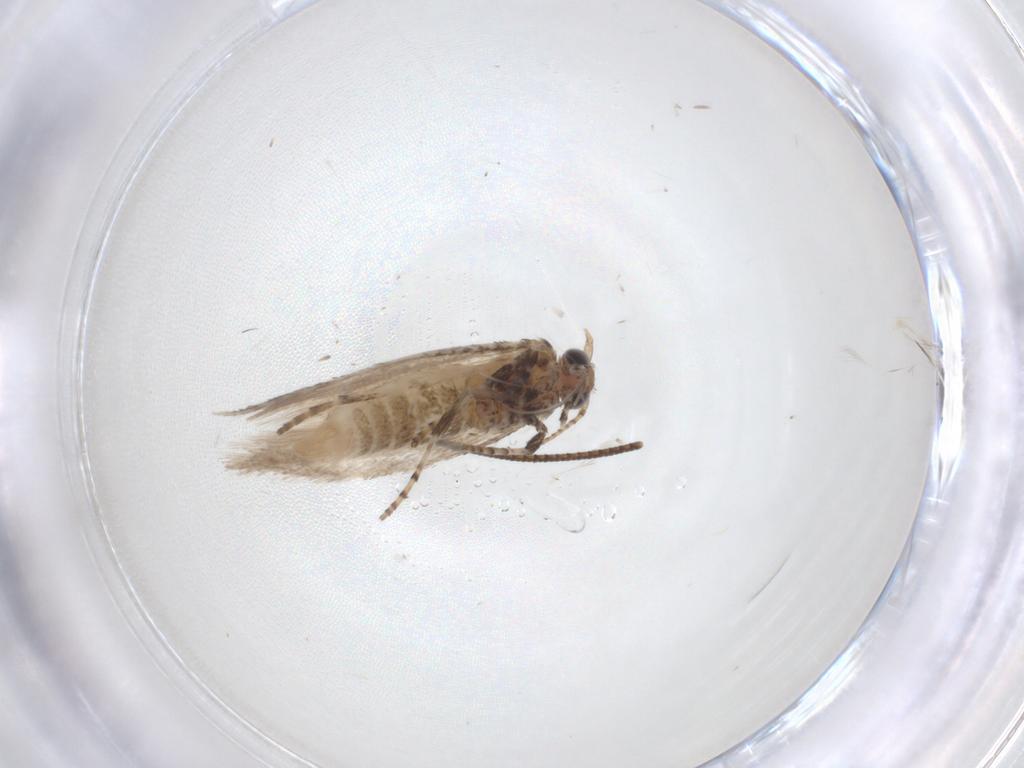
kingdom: Animalia
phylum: Arthropoda
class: Insecta
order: Lepidoptera
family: Gracillariidae
